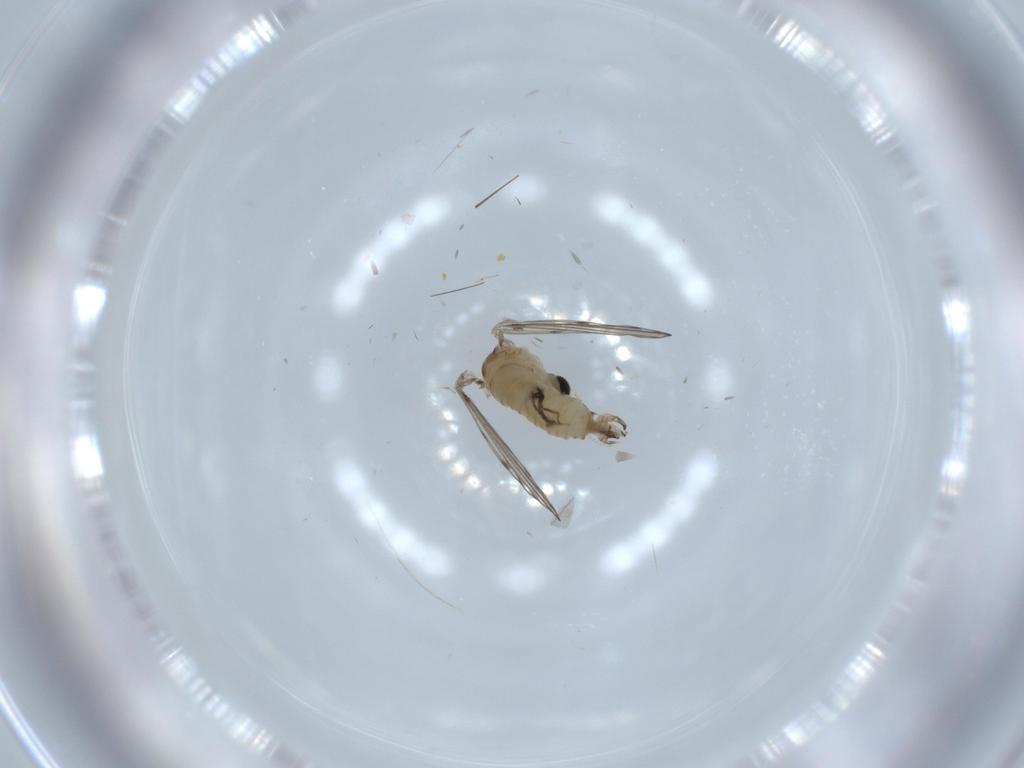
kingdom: Animalia
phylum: Arthropoda
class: Insecta
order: Diptera
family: Psychodidae
